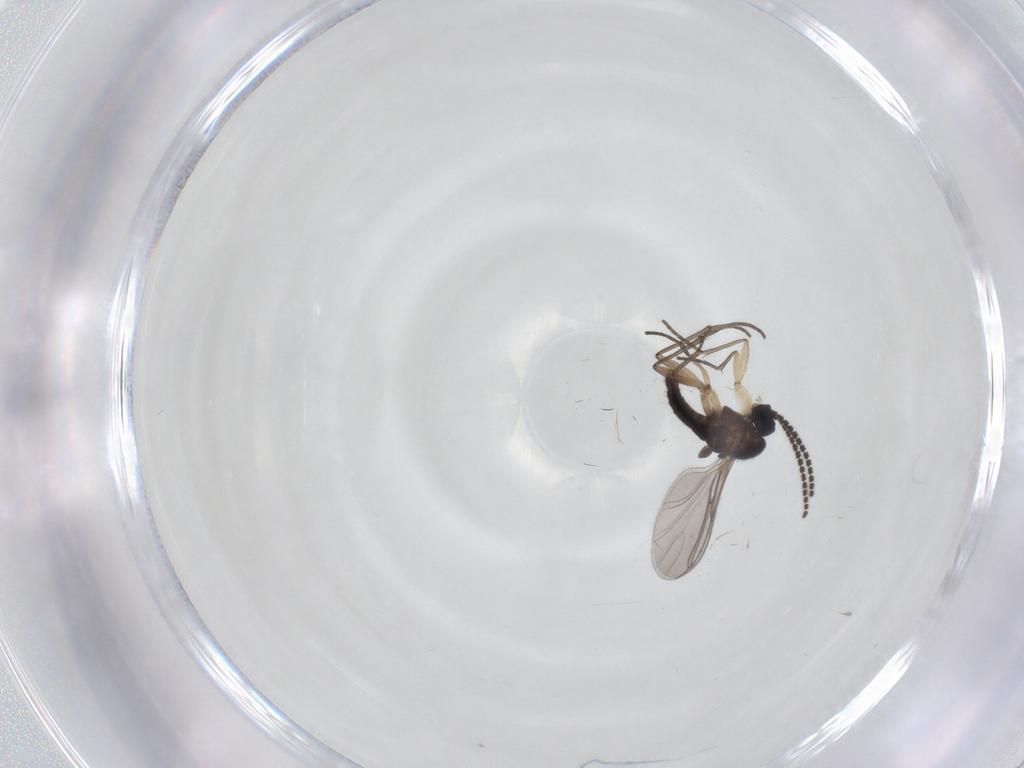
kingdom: Animalia
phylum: Arthropoda
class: Insecta
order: Diptera
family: Sciaridae
